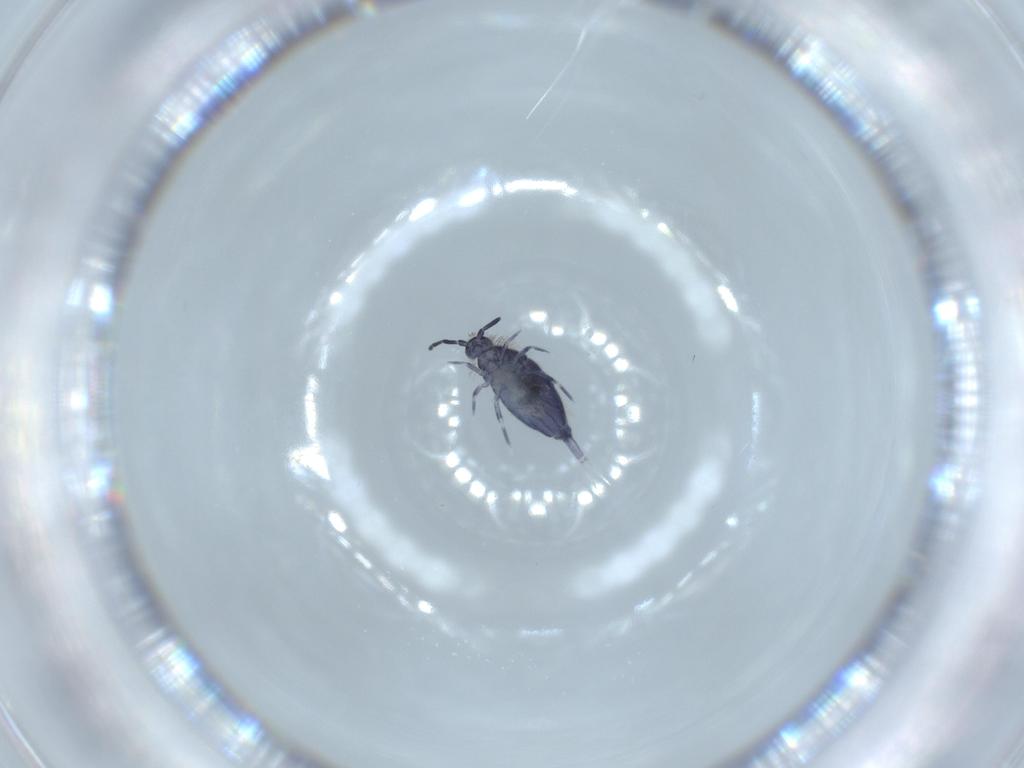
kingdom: Animalia
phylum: Arthropoda
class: Collembola
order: Entomobryomorpha
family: Entomobryidae
